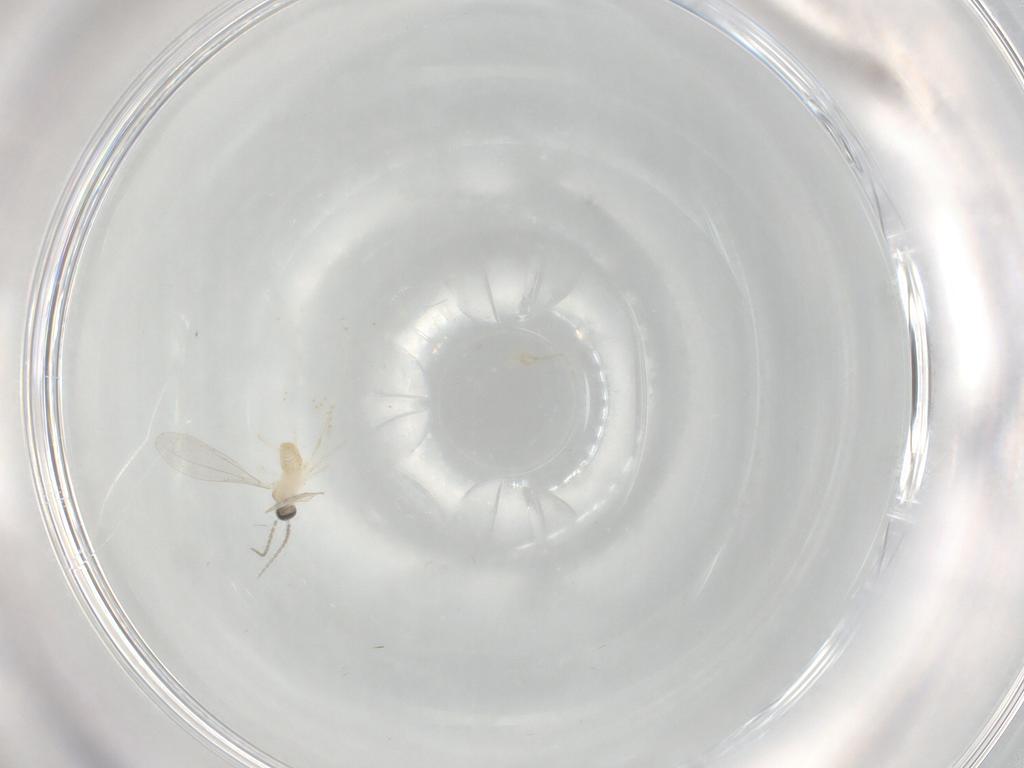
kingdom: Animalia
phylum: Arthropoda
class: Insecta
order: Diptera
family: Cecidomyiidae
